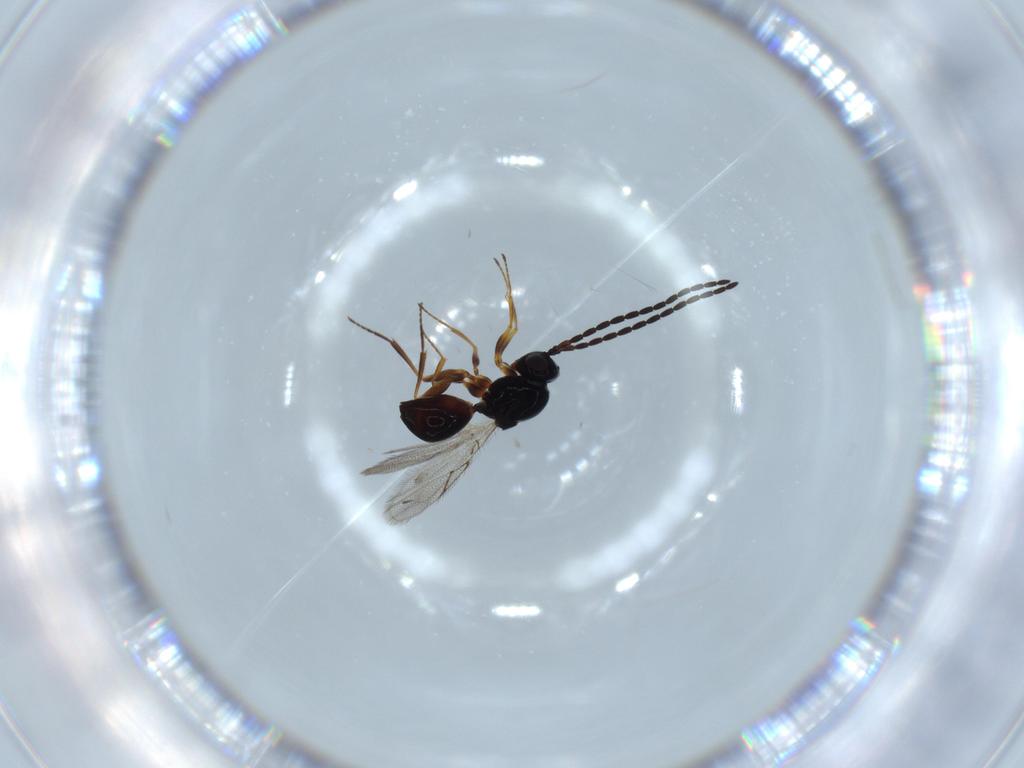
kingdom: Animalia
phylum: Arthropoda
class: Insecta
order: Hymenoptera
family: Figitidae
